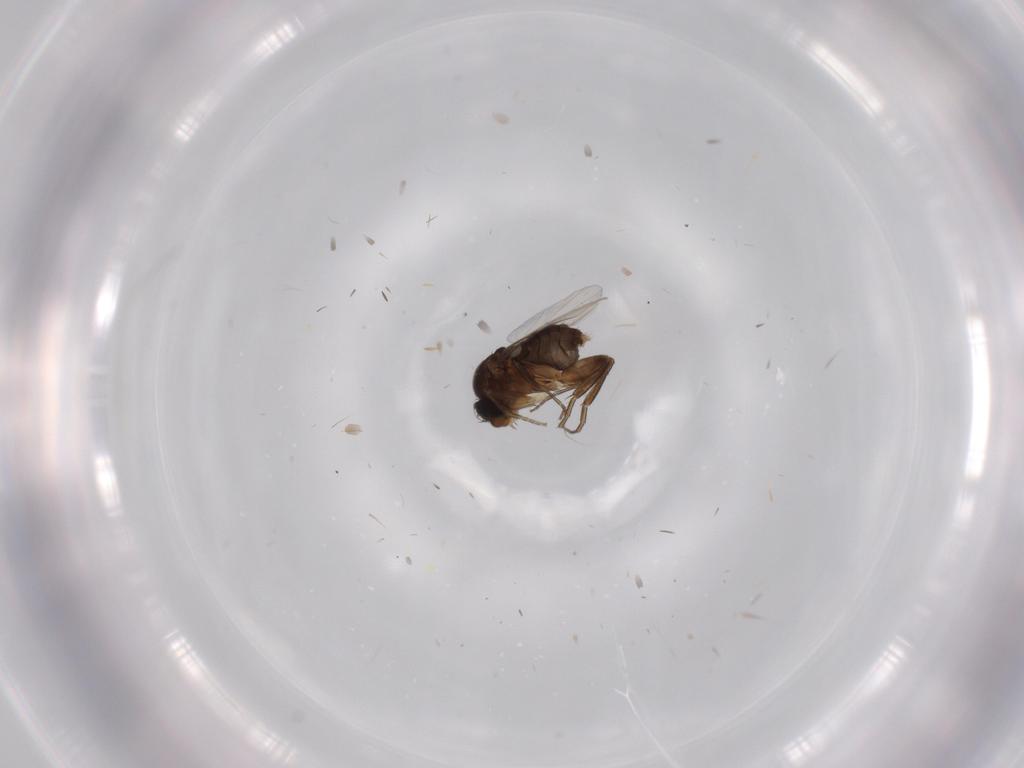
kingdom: Animalia
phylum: Arthropoda
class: Insecta
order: Diptera
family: Phoridae
